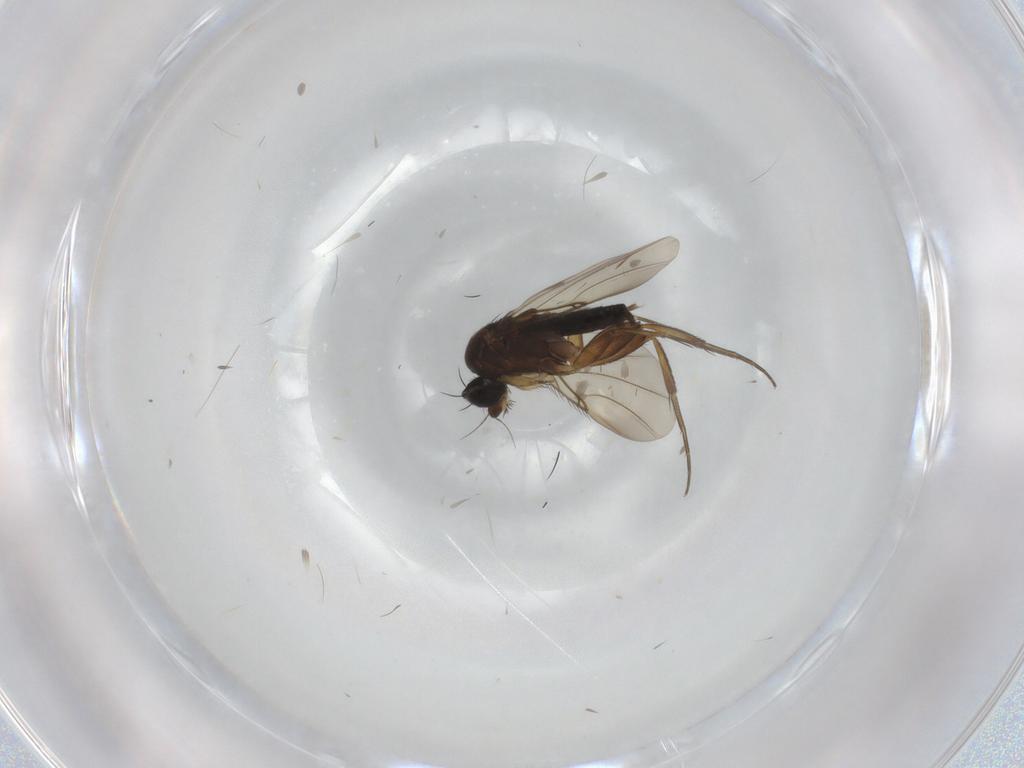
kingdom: Animalia
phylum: Arthropoda
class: Insecta
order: Diptera
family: Phoridae
